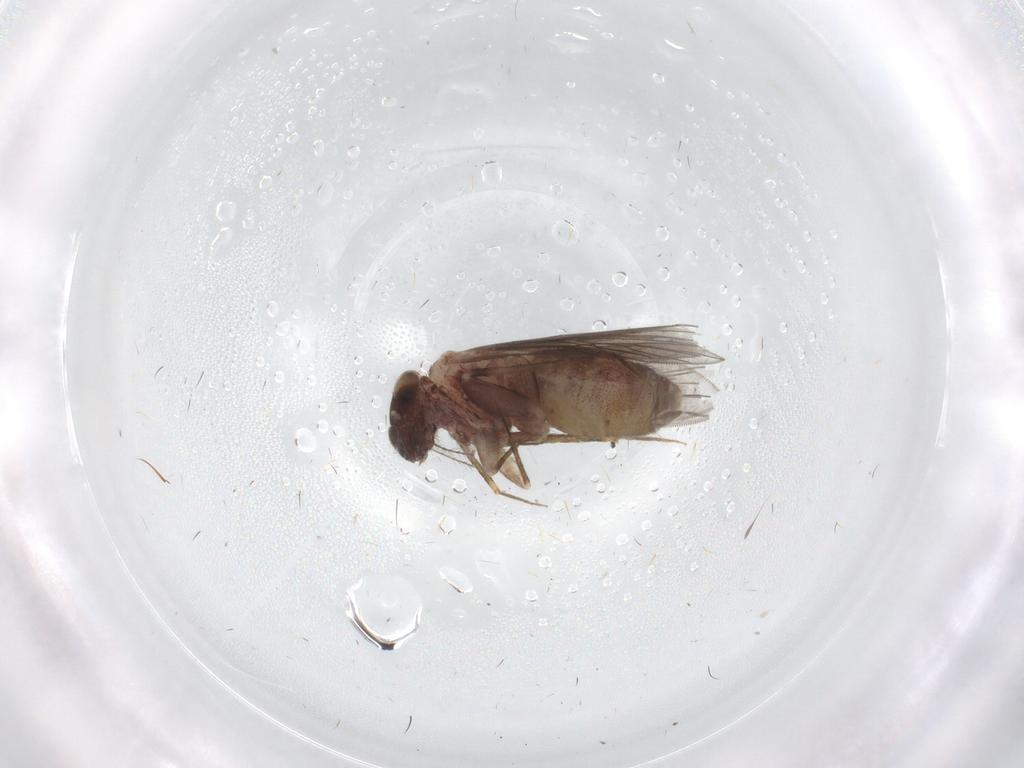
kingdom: Animalia
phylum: Arthropoda
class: Insecta
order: Psocodea
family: Lepidopsocidae
